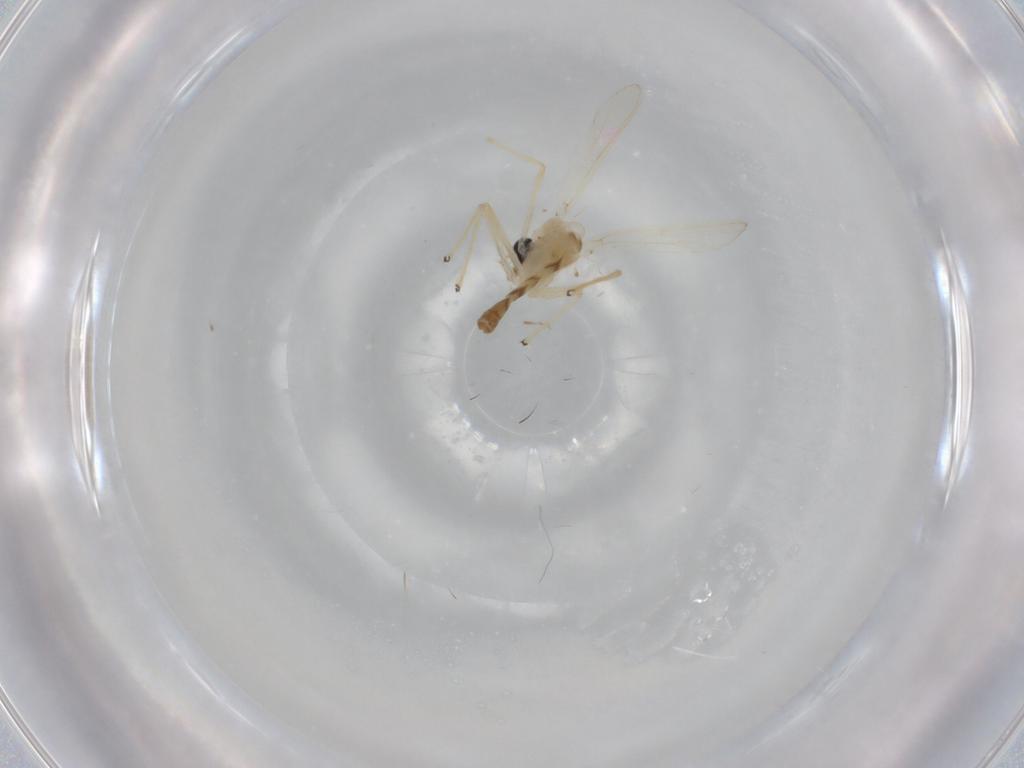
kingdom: Animalia
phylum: Arthropoda
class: Insecta
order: Diptera
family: Chironomidae
